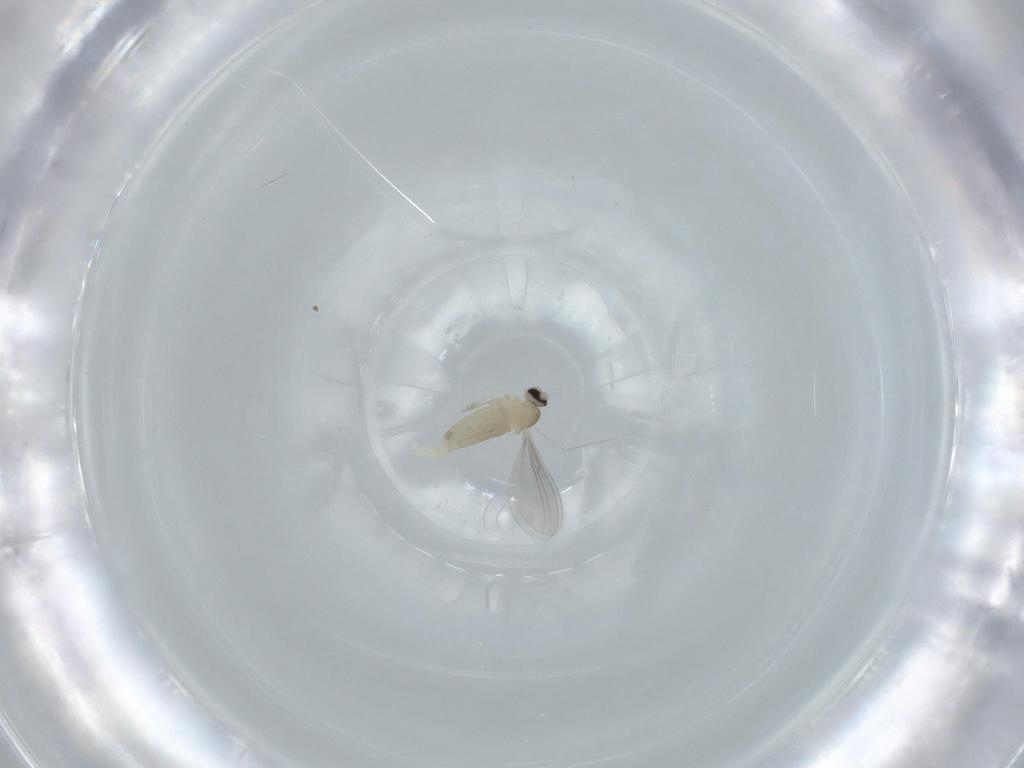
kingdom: Animalia
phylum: Arthropoda
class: Insecta
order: Diptera
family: Cecidomyiidae
